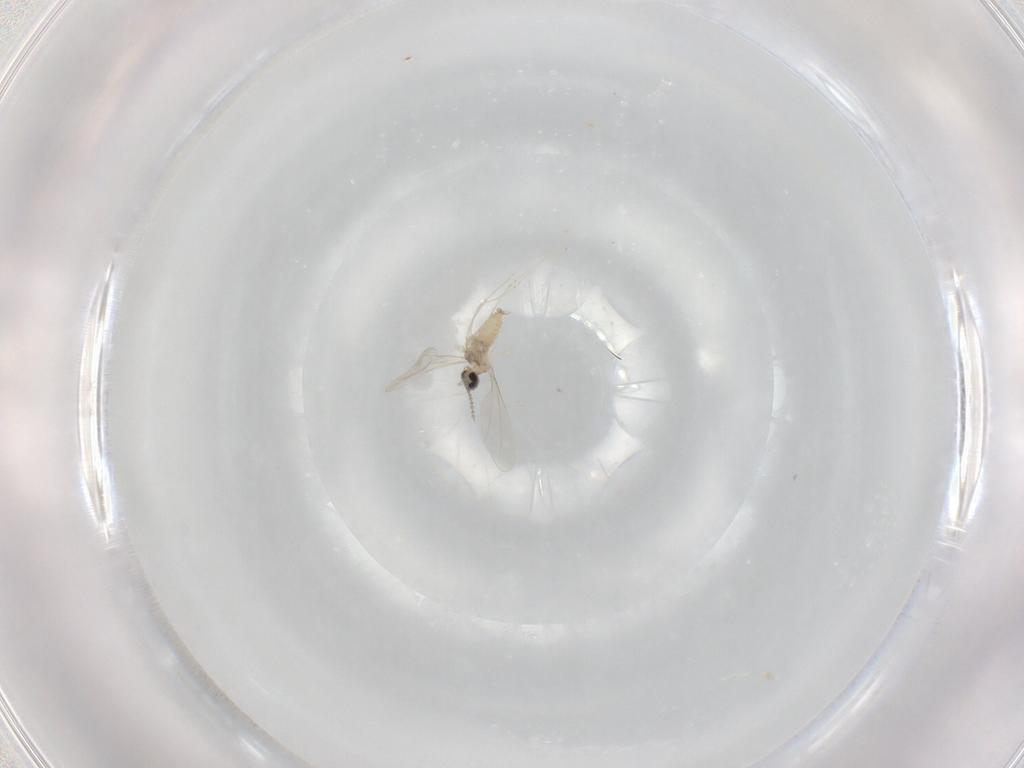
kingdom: Animalia
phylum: Arthropoda
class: Insecta
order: Diptera
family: Cecidomyiidae
